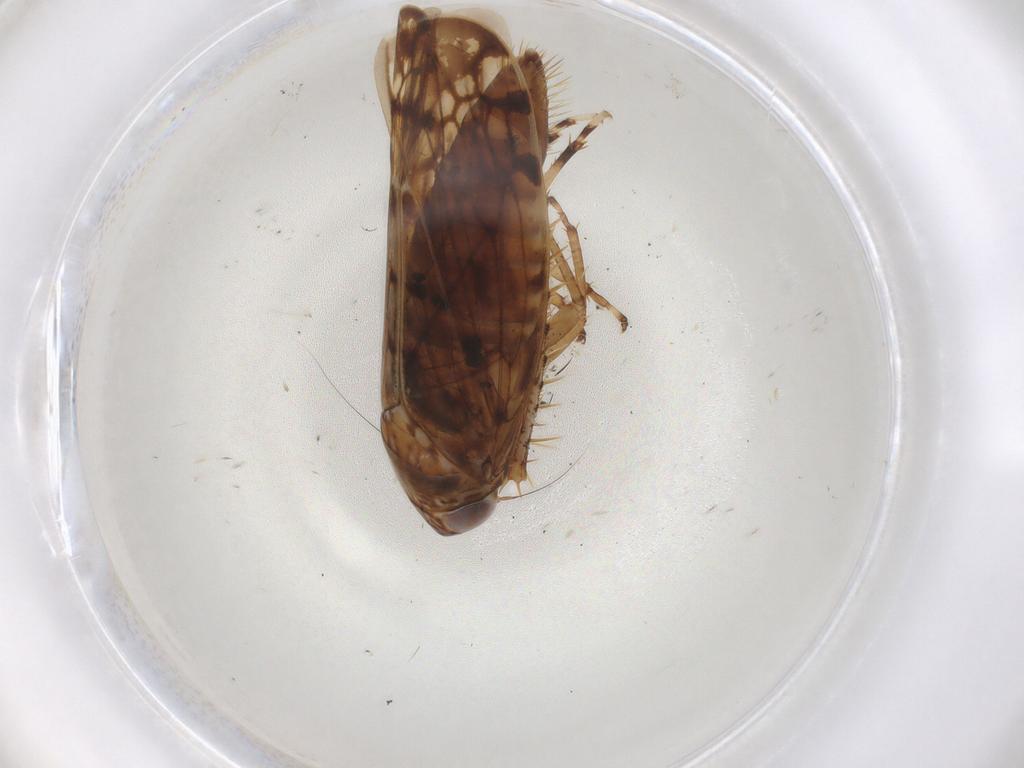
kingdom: Animalia
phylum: Arthropoda
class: Insecta
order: Hemiptera
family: Cicadellidae
